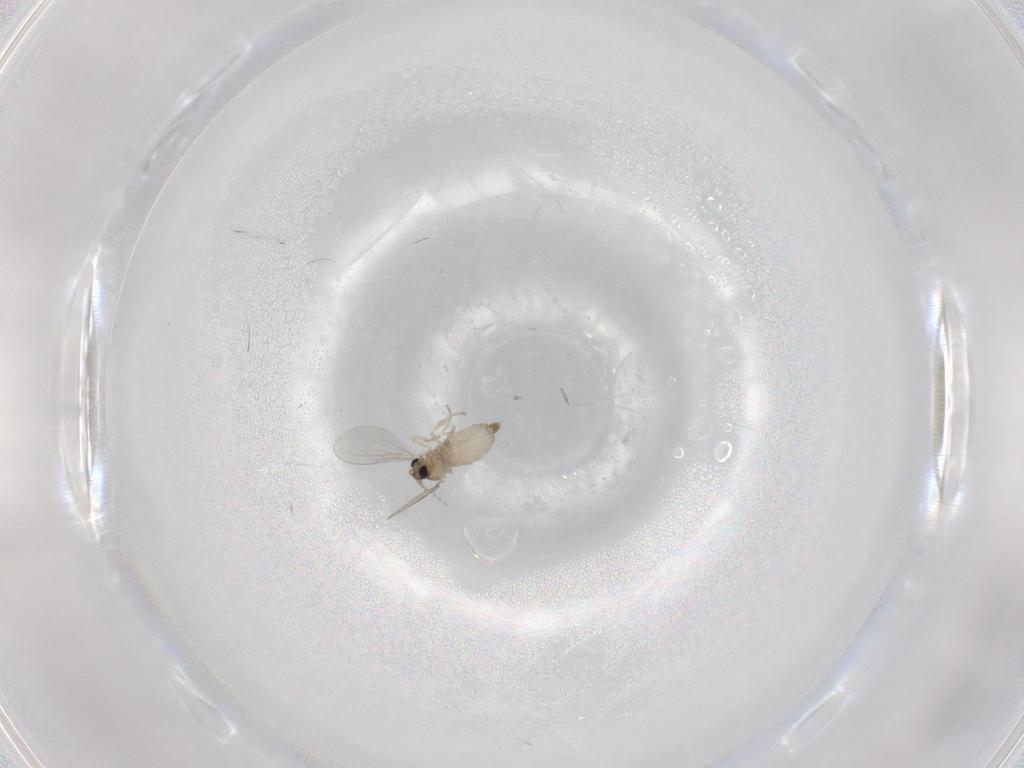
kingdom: Animalia
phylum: Arthropoda
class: Insecta
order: Diptera
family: Cecidomyiidae
